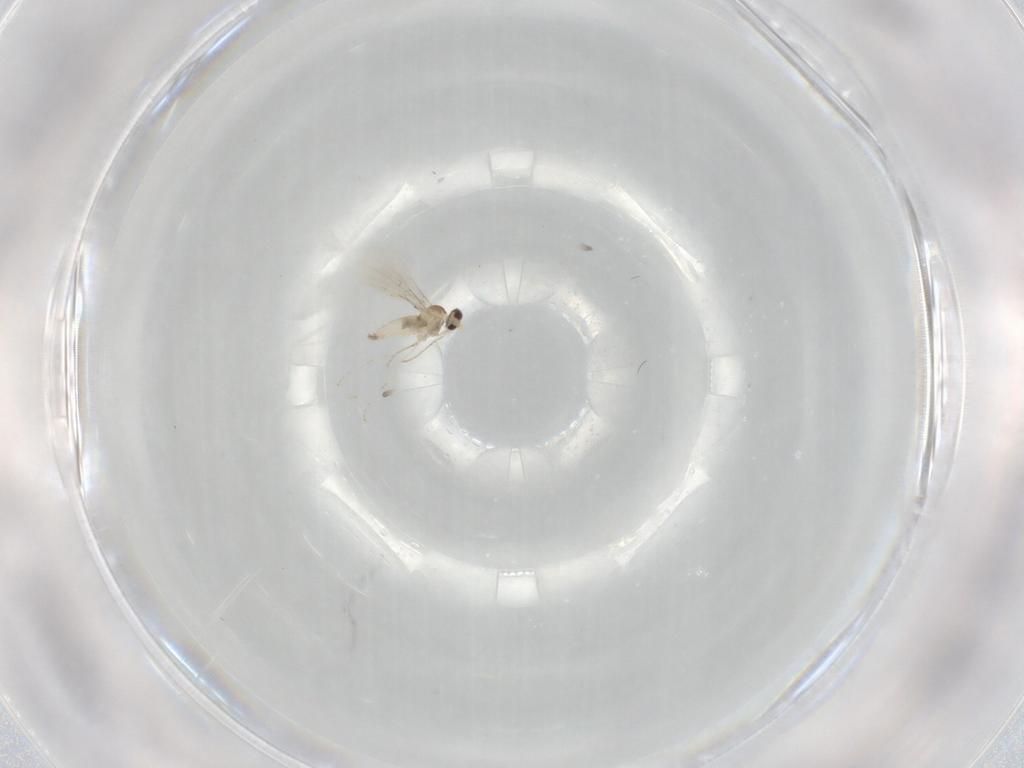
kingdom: Animalia
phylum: Arthropoda
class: Insecta
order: Diptera
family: Cecidomyiidae
